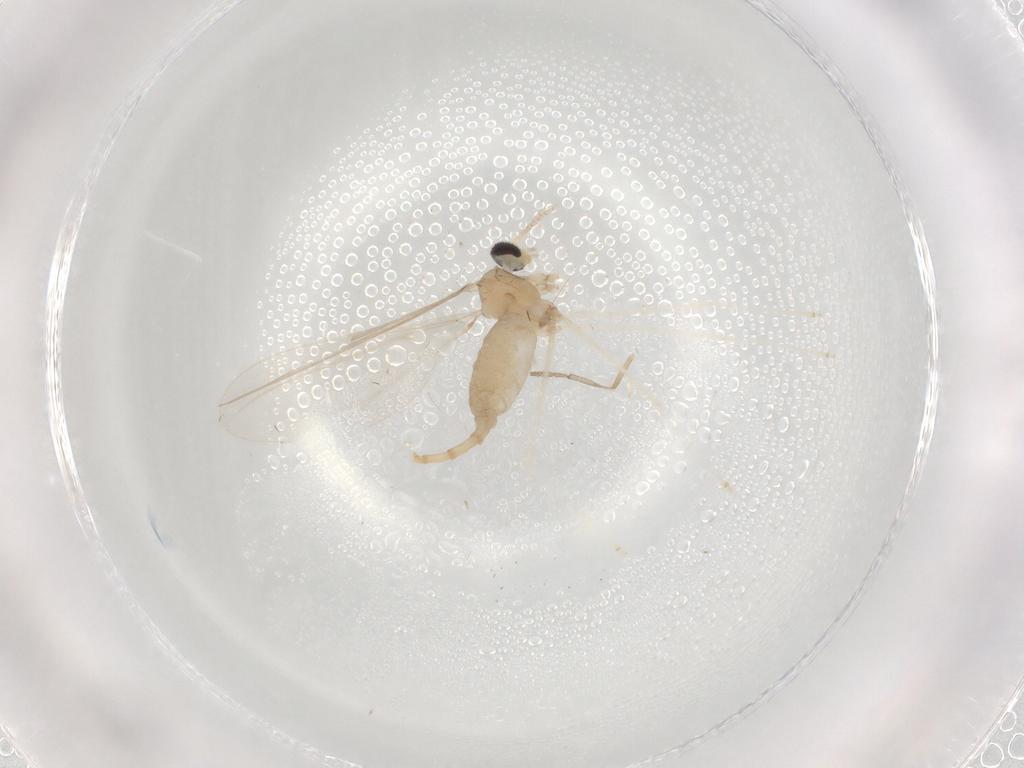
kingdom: Animalia
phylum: Arthropoda
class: Insecta
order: Diptera
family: Cecidomyiidae
